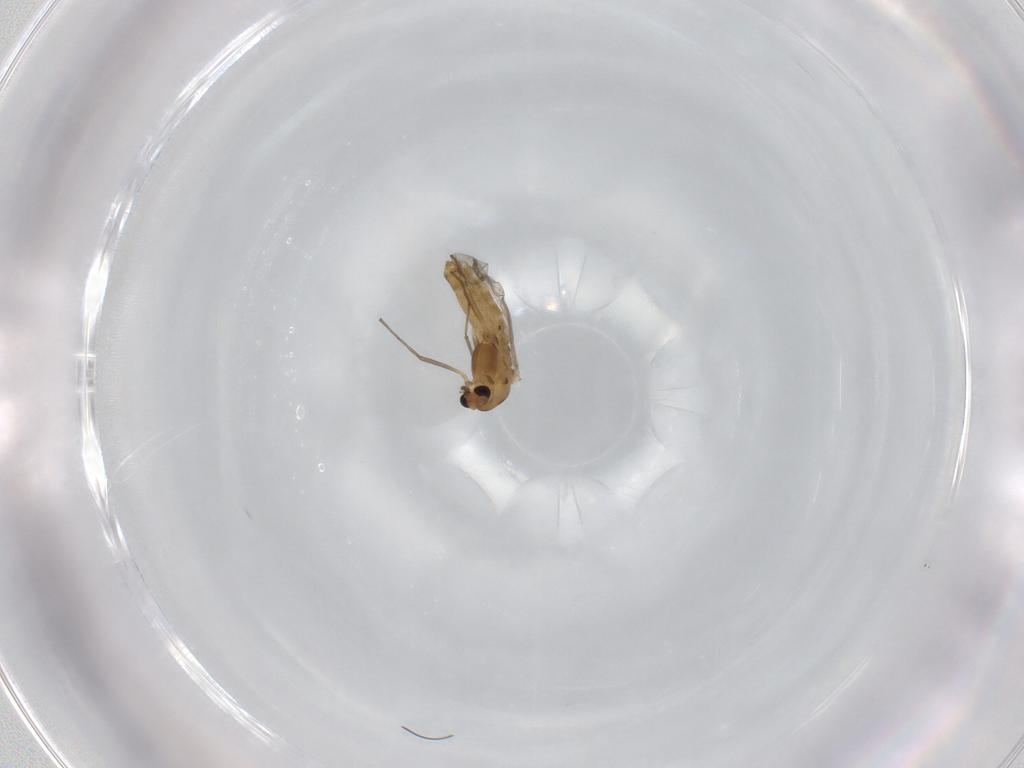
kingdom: Animalia
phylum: Arthropoda
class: Insecta
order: Diptera
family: Chironomidae
